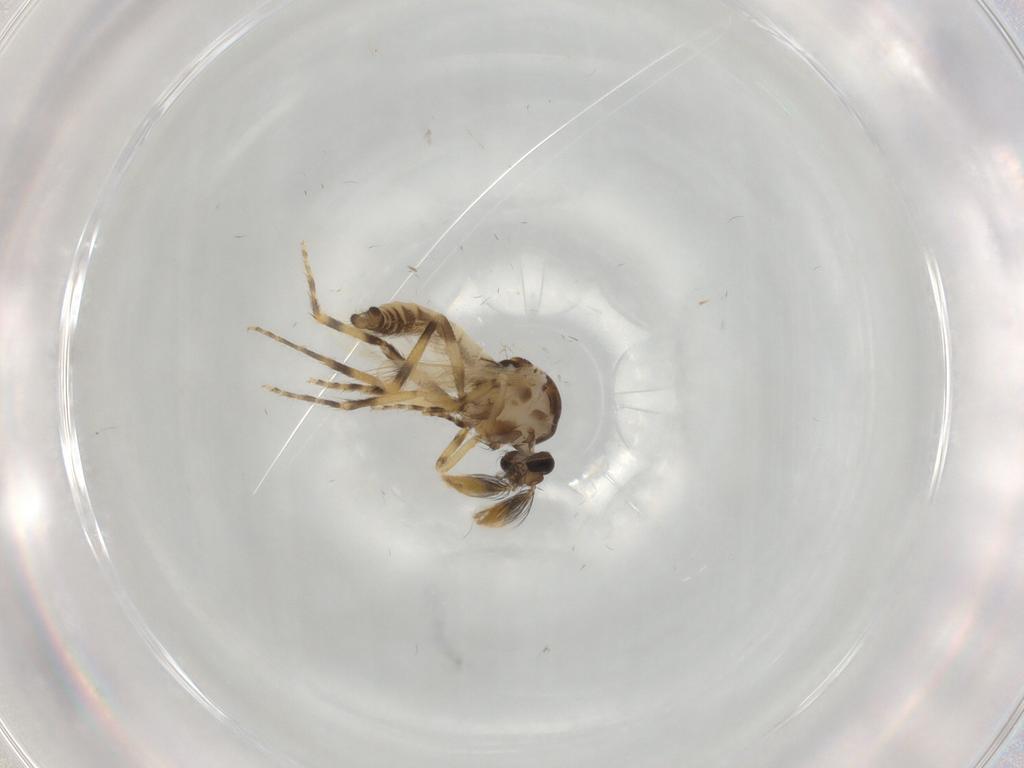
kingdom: Animalia
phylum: Arthropoda
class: Insecta
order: Diptera
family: Ceratopogonidae
